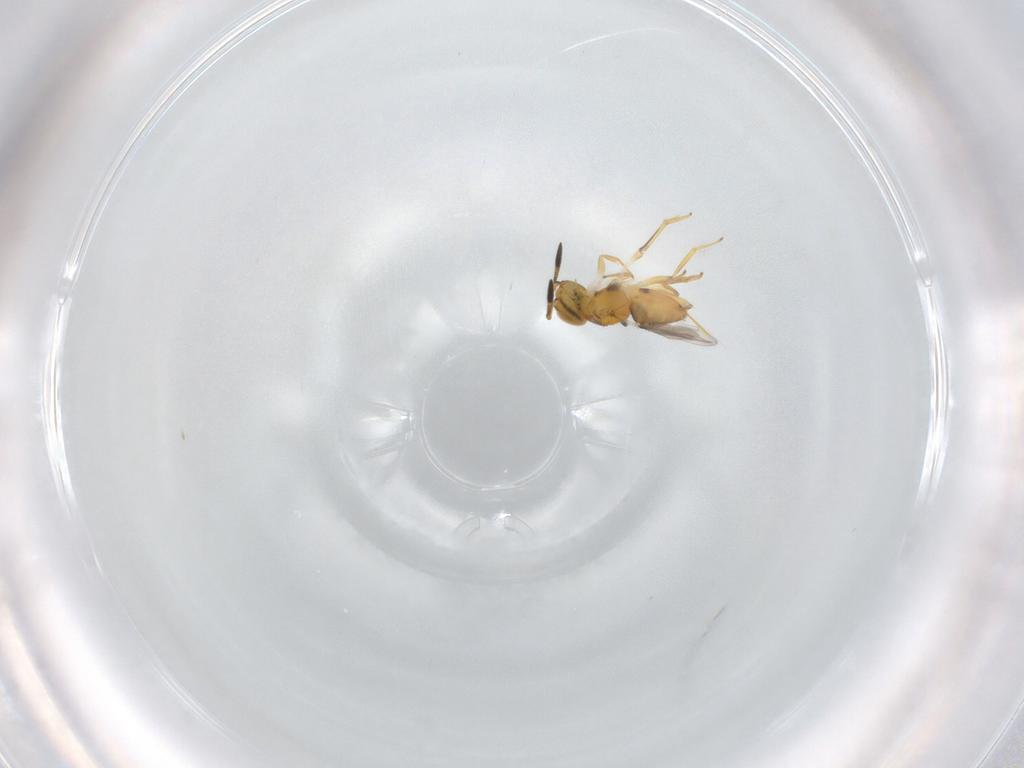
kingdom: Animalia
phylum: Arthropoda
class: Insecta
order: Hymenoptera
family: Encyrtidae
